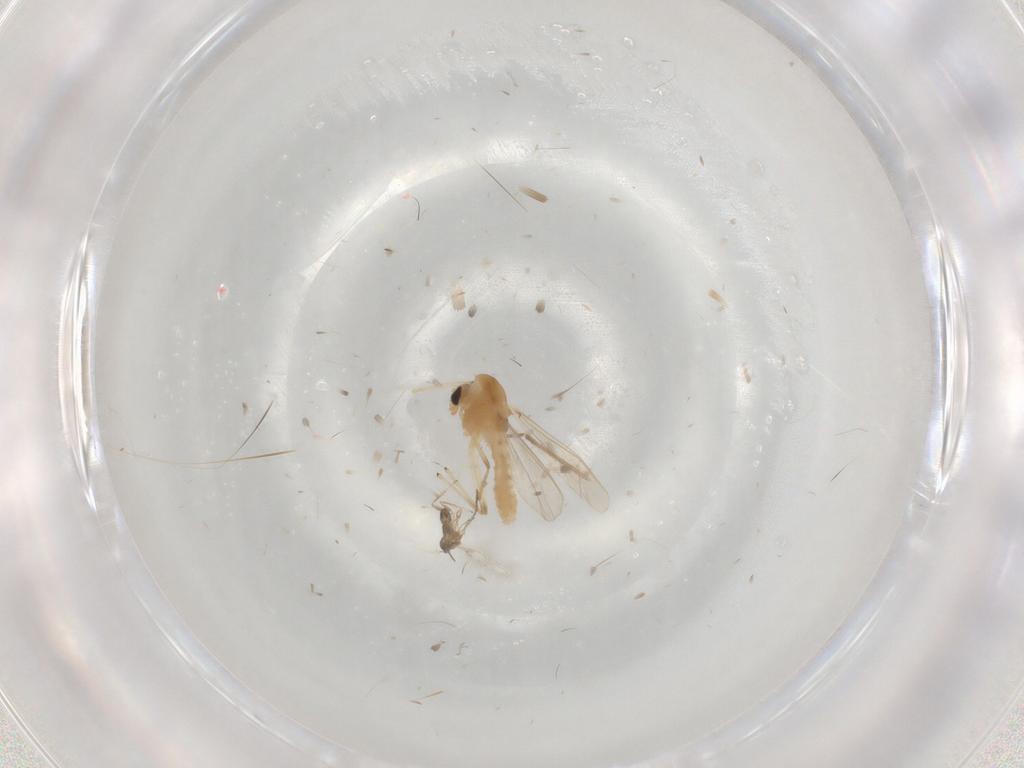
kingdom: Animalia
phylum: Arthropoda
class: Insecta
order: Diptera
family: Chironomidae
